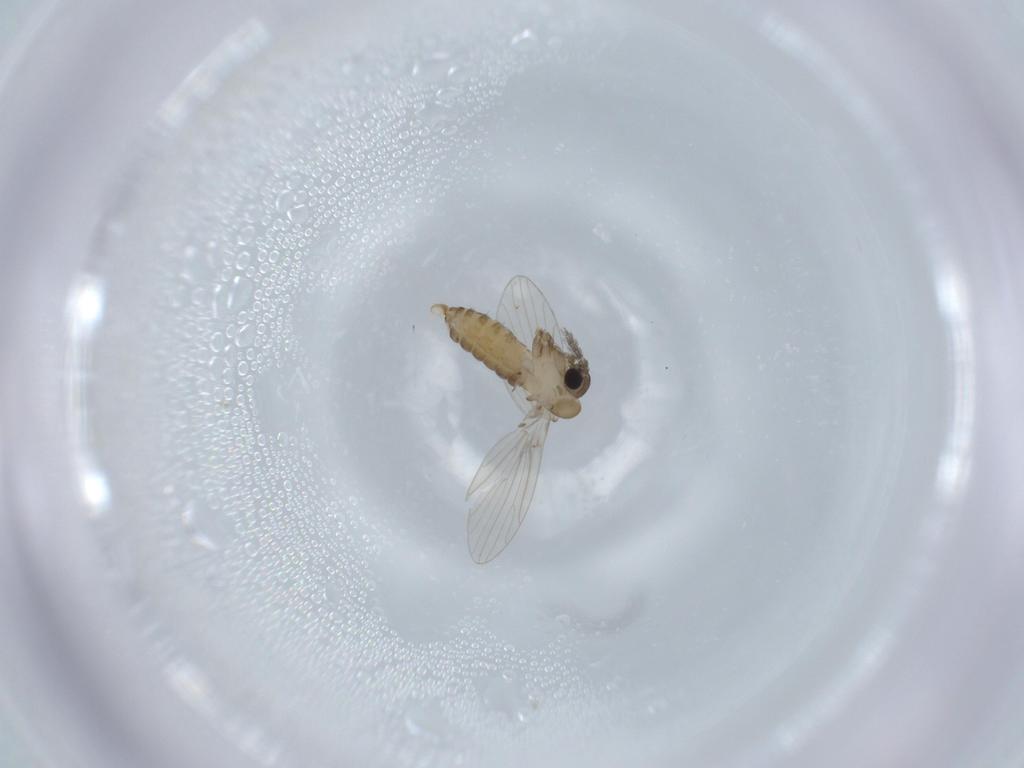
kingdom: Animalia
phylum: Arthropoda
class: Insecta
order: Diptera
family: Psychodidae
